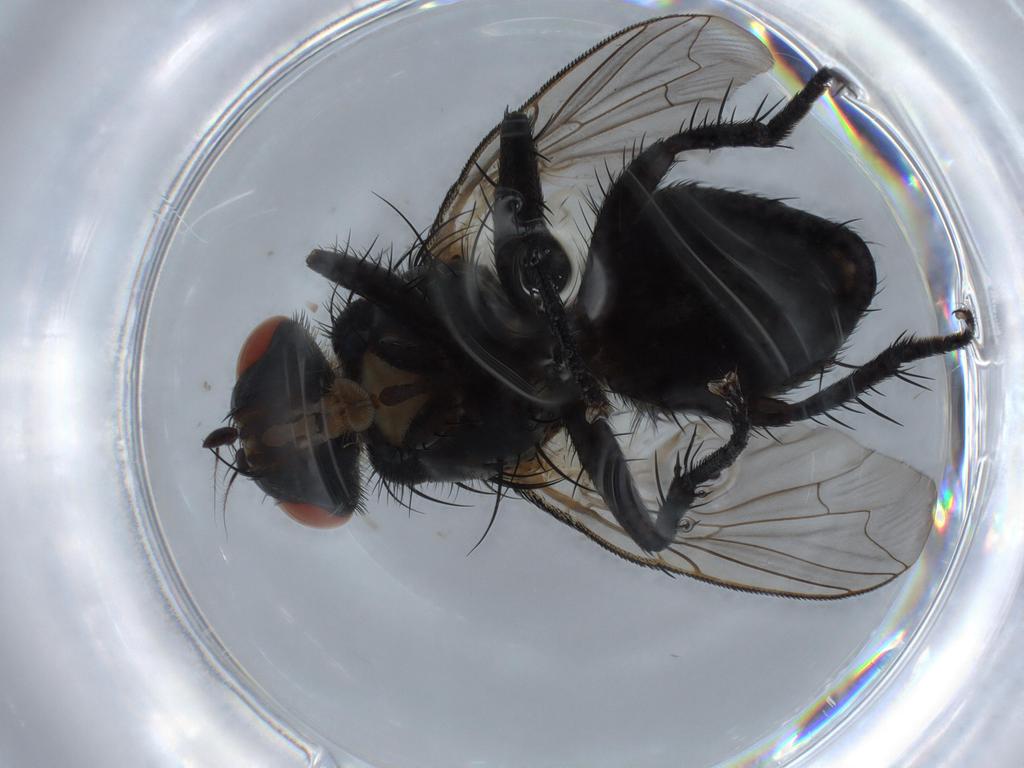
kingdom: Animalia
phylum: Arthropoda
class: Insecta
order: Diptera
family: Sarcophagidae
